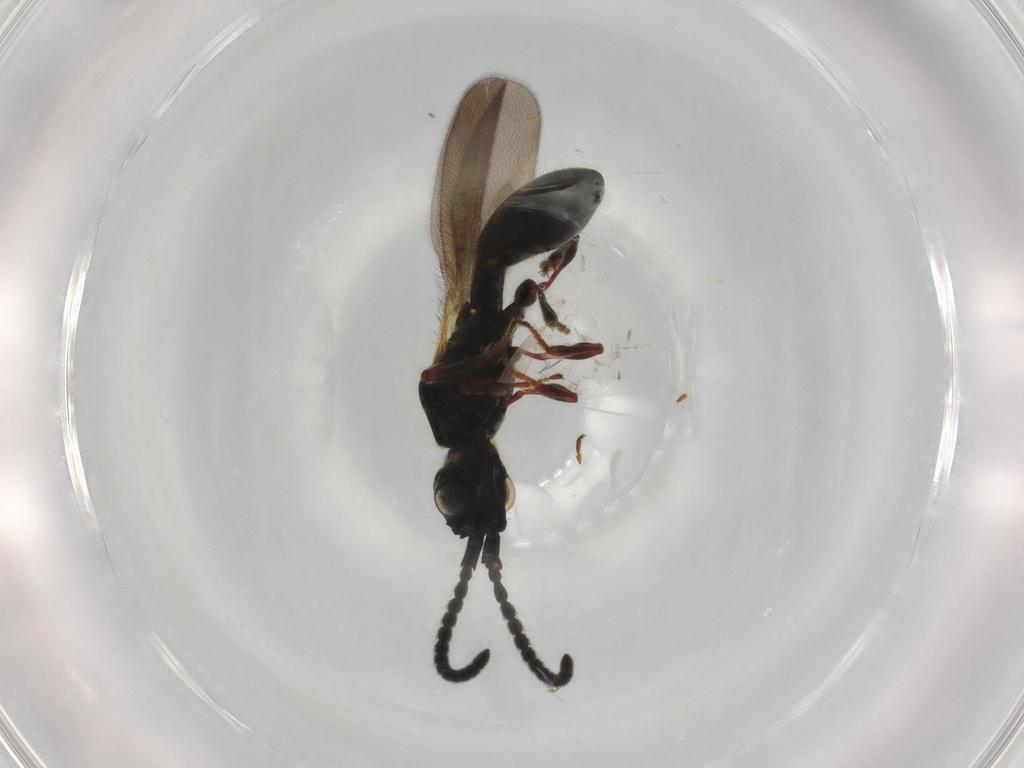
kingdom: Animalia
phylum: Arthropoda
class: Insecta
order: Hymenoptera
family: Diapriidae
